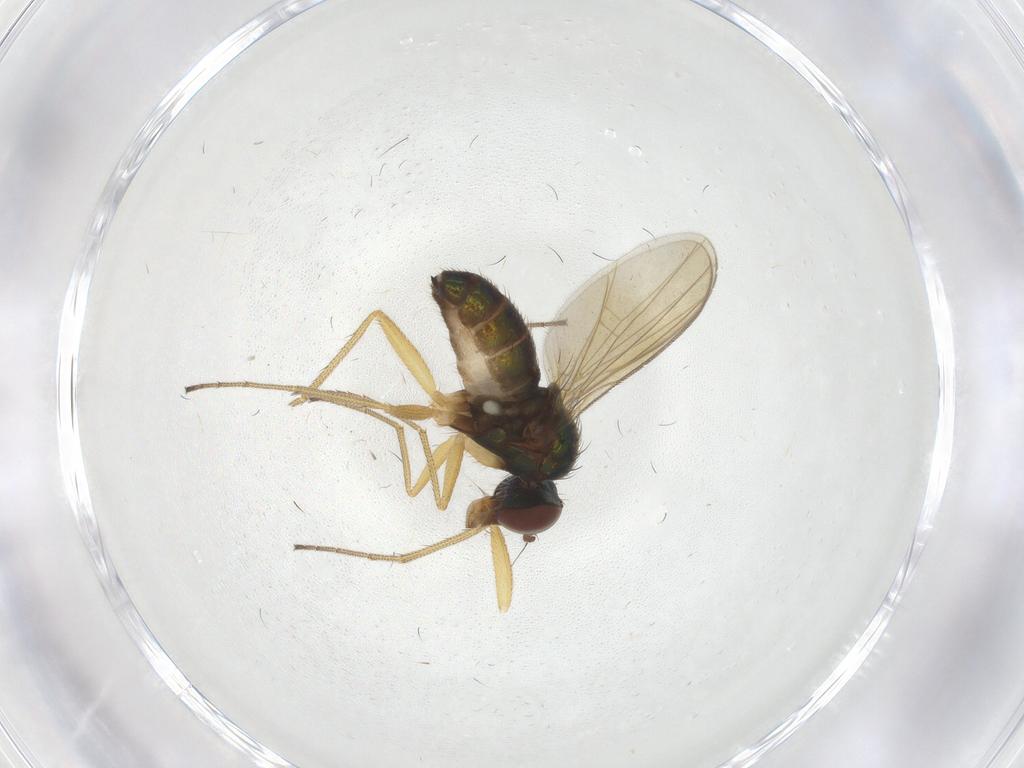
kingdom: Animalia
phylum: Arthropoda
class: Insecta
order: Diptera
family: Dolichopodidae
